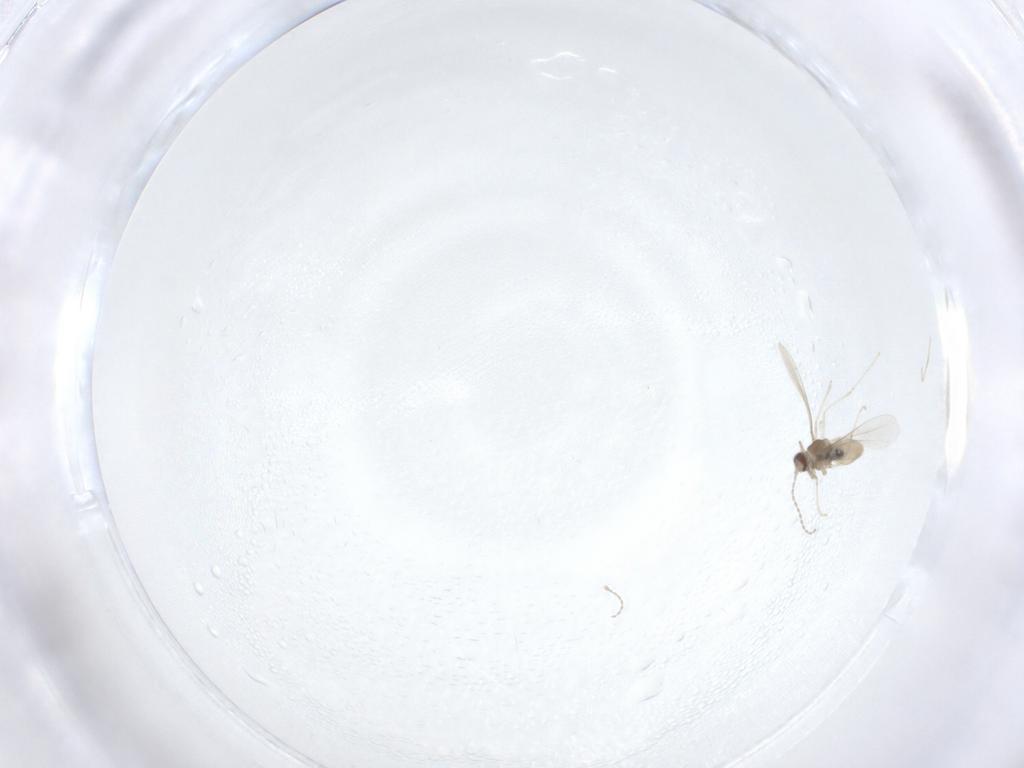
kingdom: Animalia
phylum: Arthropoda
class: Insecta
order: Diptera
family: Cecidomyiidae
